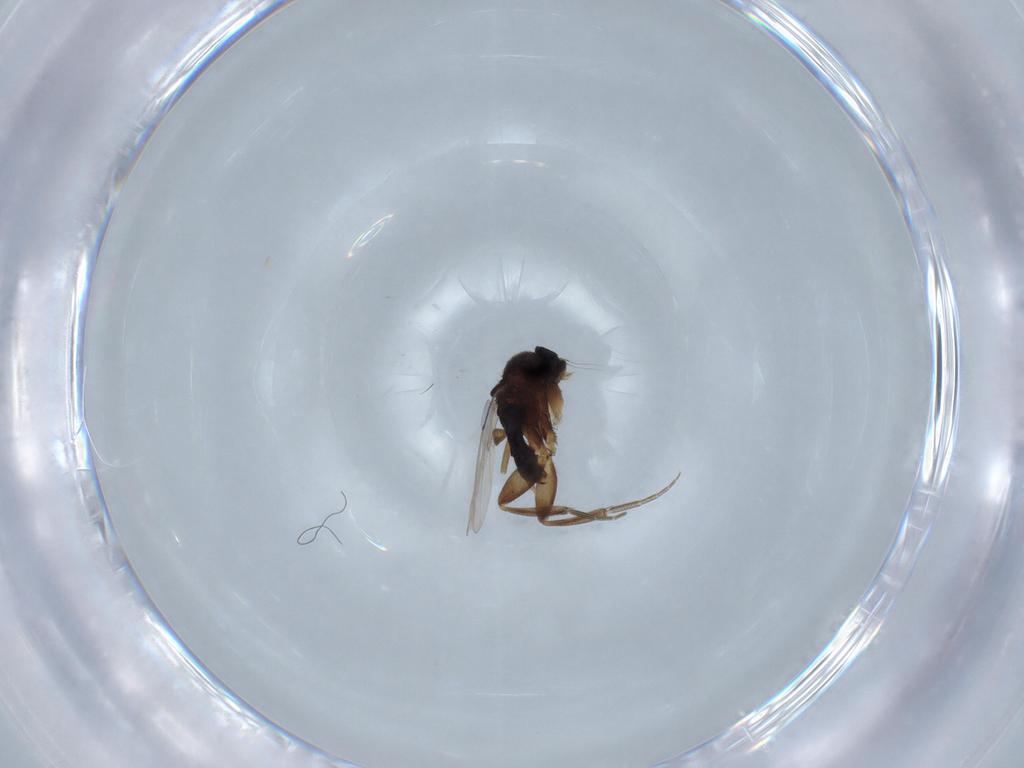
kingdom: Animalia
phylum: Arthropoda
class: Insecta
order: Diptera
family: Phoridae
